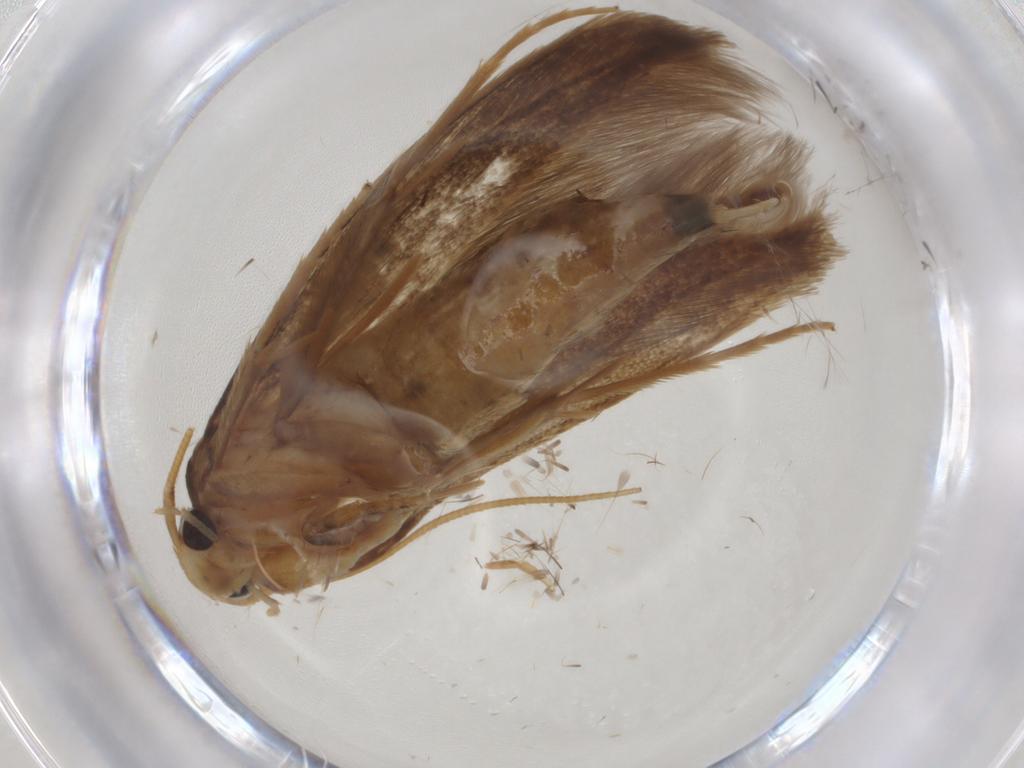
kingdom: Animalia
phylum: Arthropoda
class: Insecta
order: Lepidoptera
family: Tineidae
